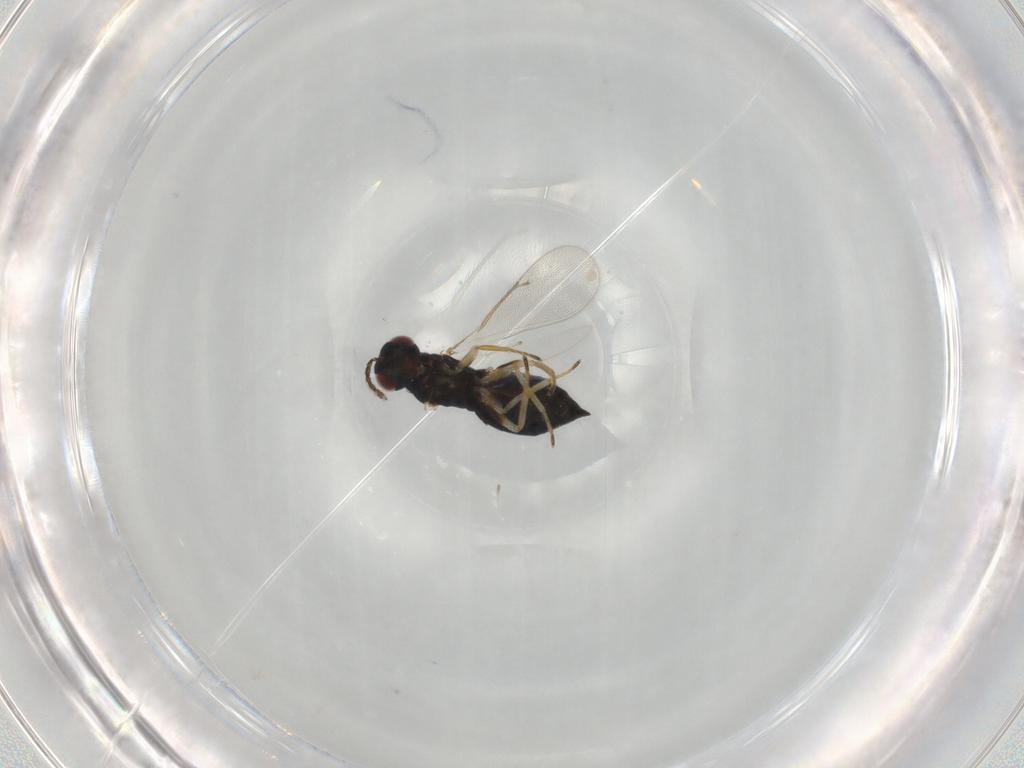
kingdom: Animalia
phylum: Arthropoda
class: Insecta
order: Hymenoptera
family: Eulophidae
